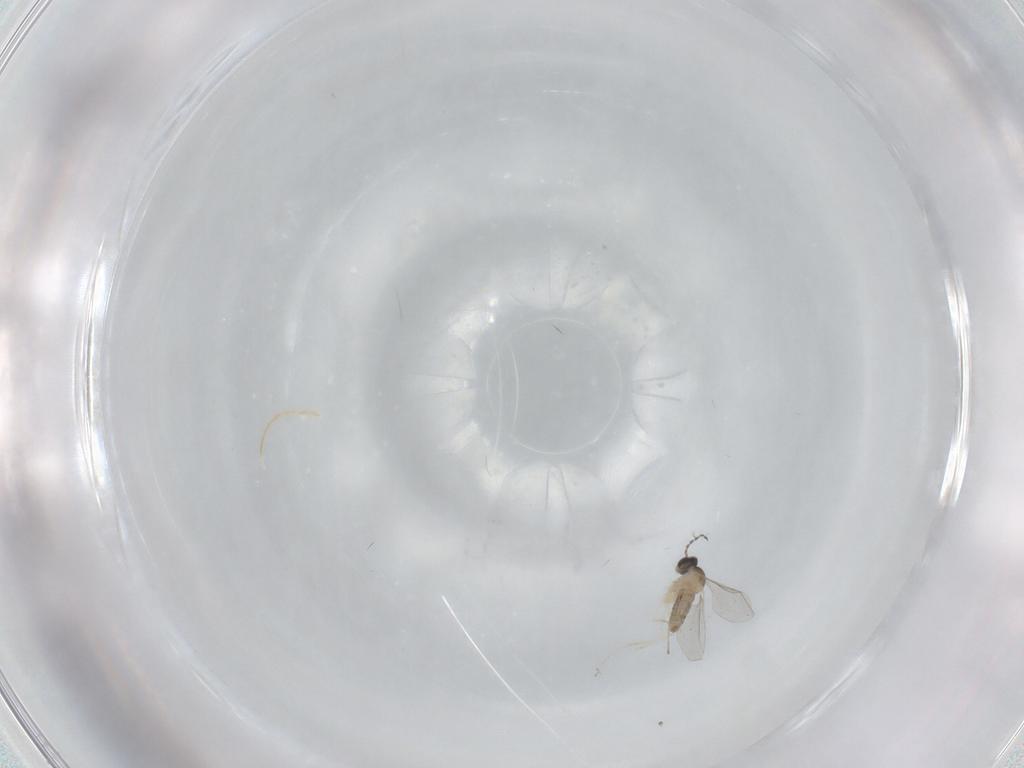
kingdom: Animalia
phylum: Arthropoda
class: Insecta
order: Diptera
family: Cecidomyiidae
